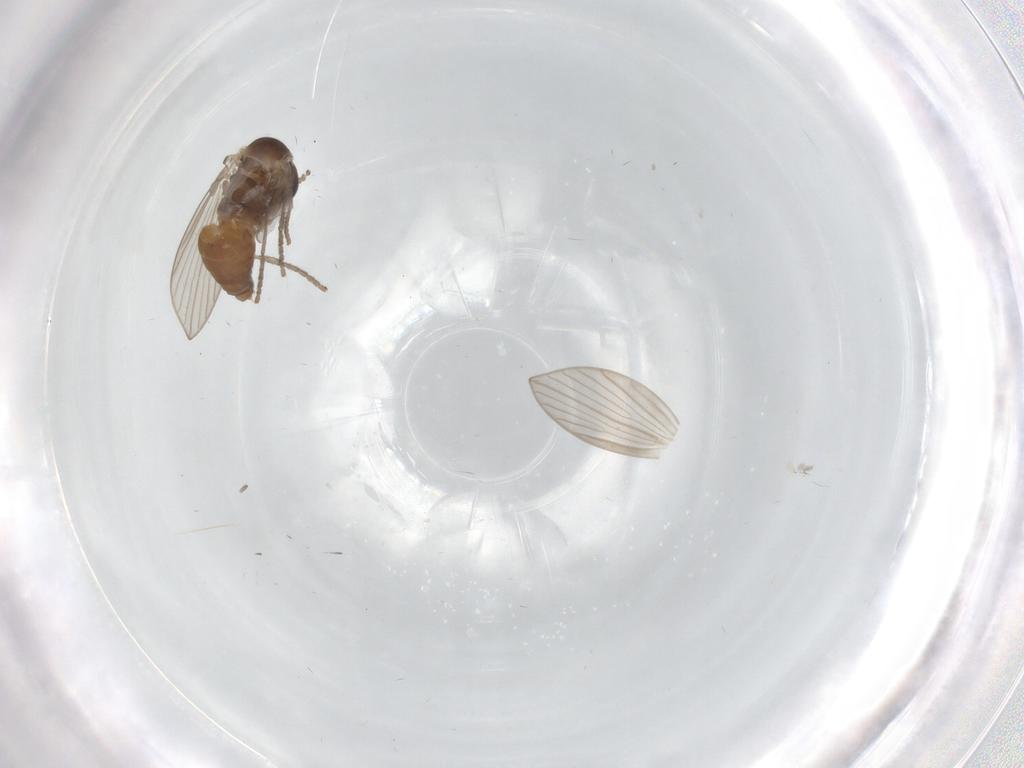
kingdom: Animalia
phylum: Arthropoda
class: Insecta
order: Diptera
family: Psychodidae
